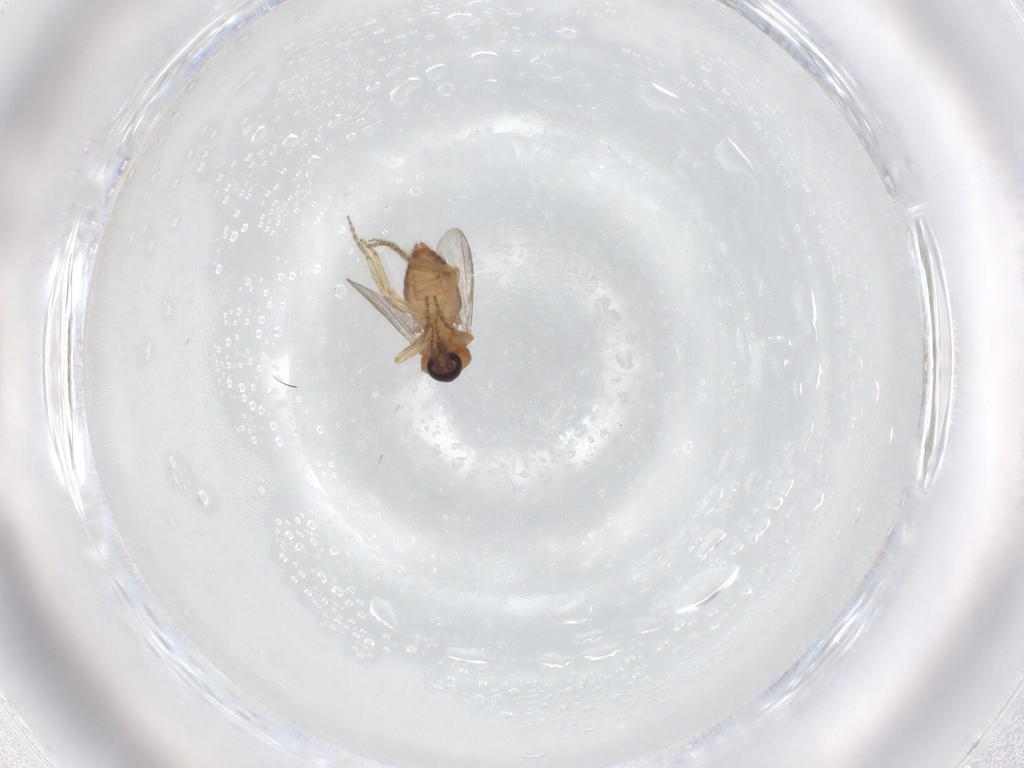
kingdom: Animalia
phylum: Arthropoda
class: Insecta
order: Diptera
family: Ceratopogonidae
